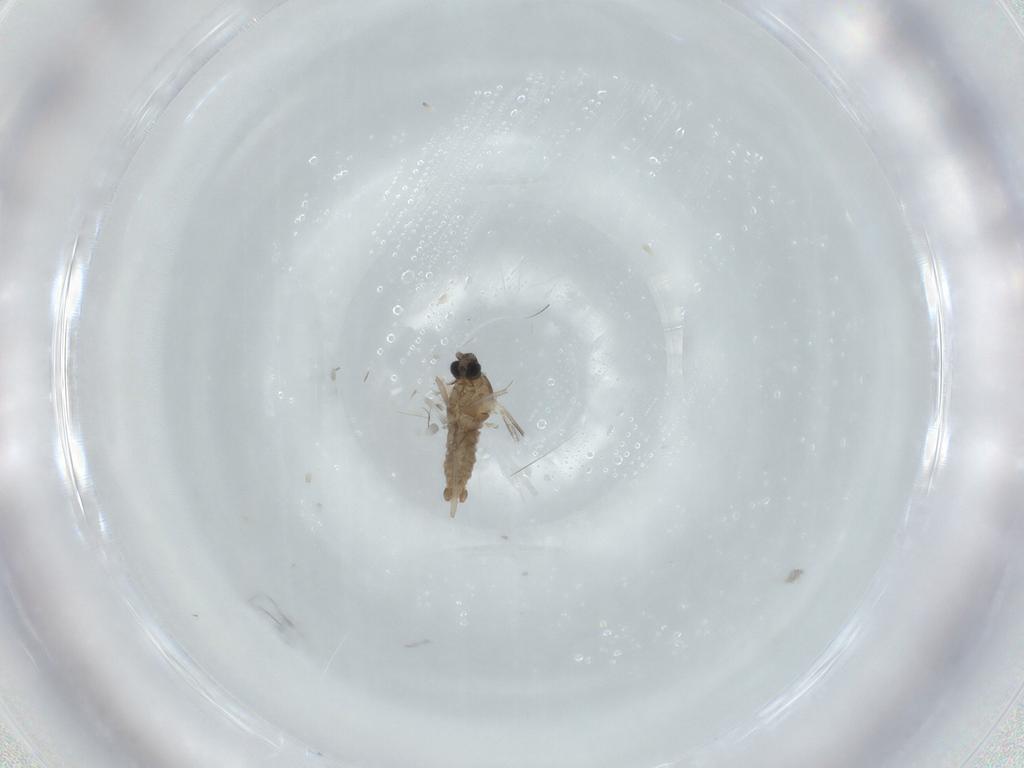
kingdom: Animalia
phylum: Arthropoda
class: Insecta
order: Diptera
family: Cecidomyiidae
